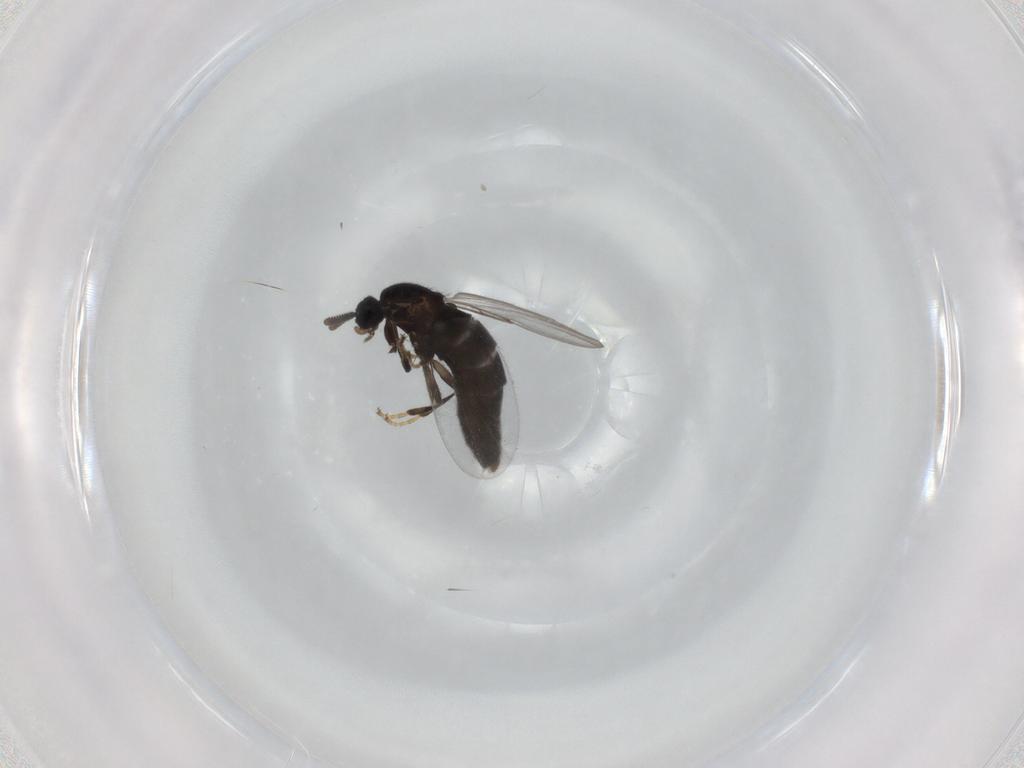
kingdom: Animalia
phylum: Arthropoda
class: Insecta
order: Diptera
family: Scatopsidae
